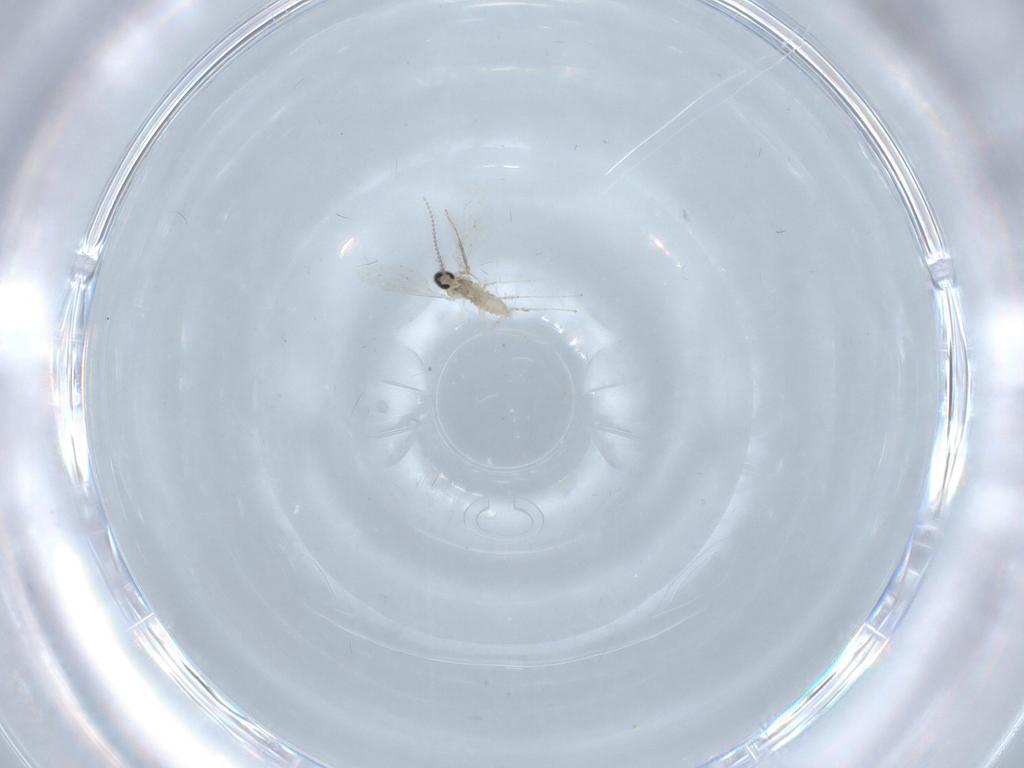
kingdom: Animalia
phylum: Arthropoda
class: Insecta
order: Diptera
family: Cecidomyiidae
